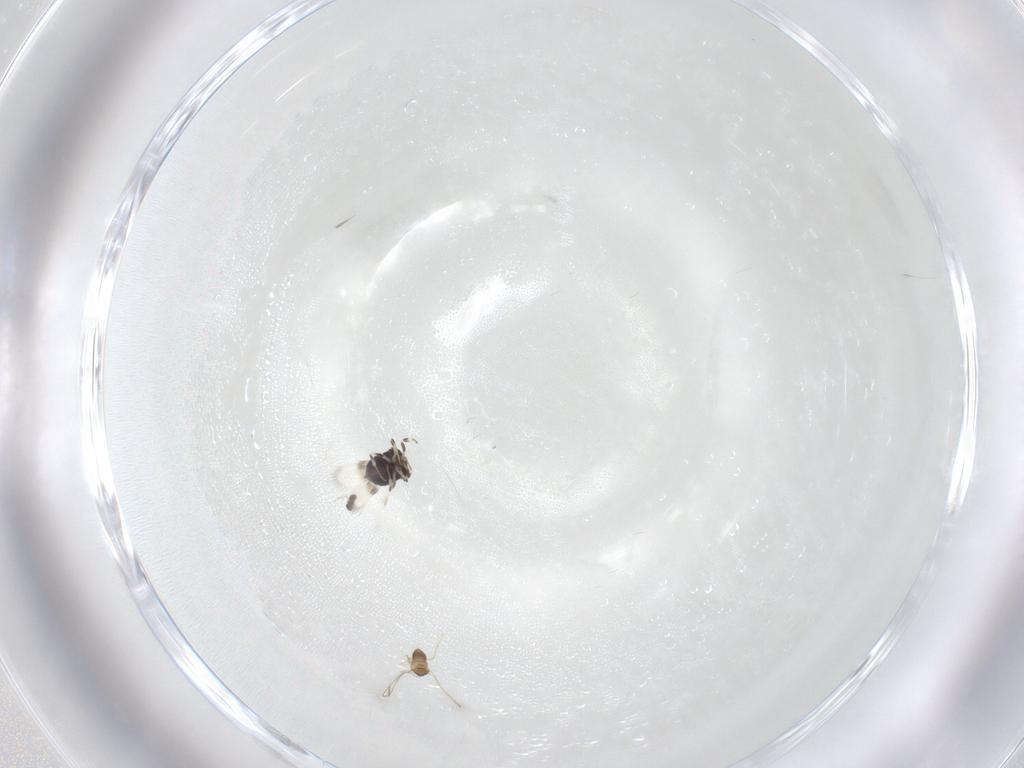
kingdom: Animalia
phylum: Arthropoda
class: Insecta
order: Hymenoptera
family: Azotidae
